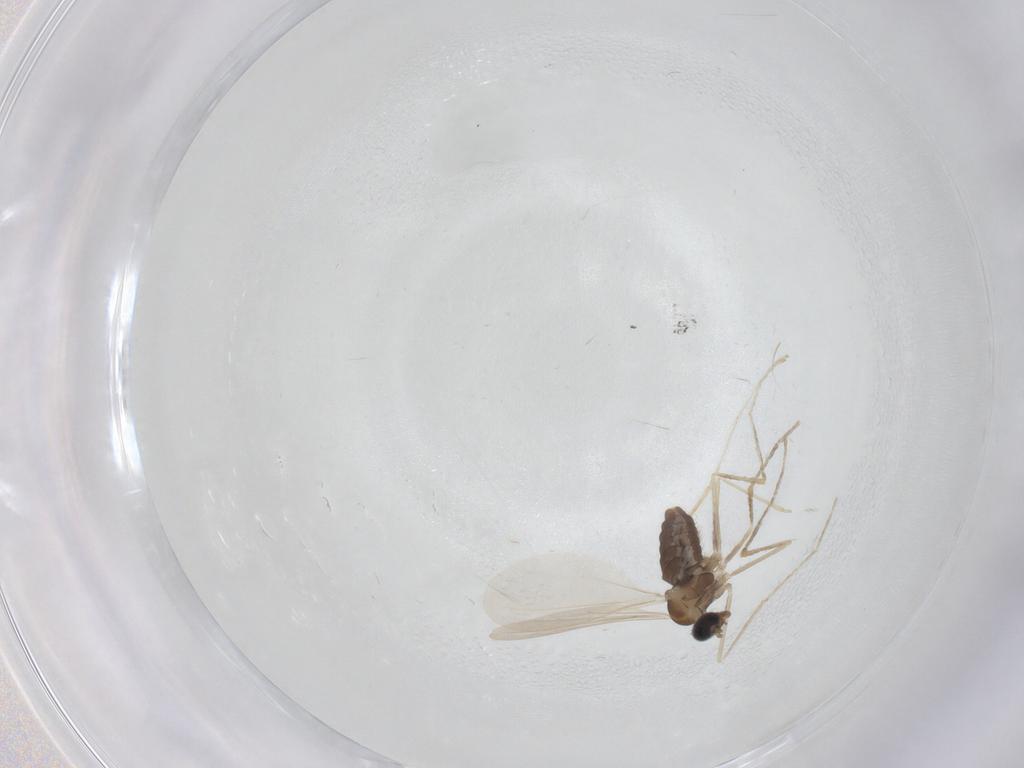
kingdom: Animalia
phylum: Arthropoda
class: Insecta
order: Diptera
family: Cecidomyiidae
